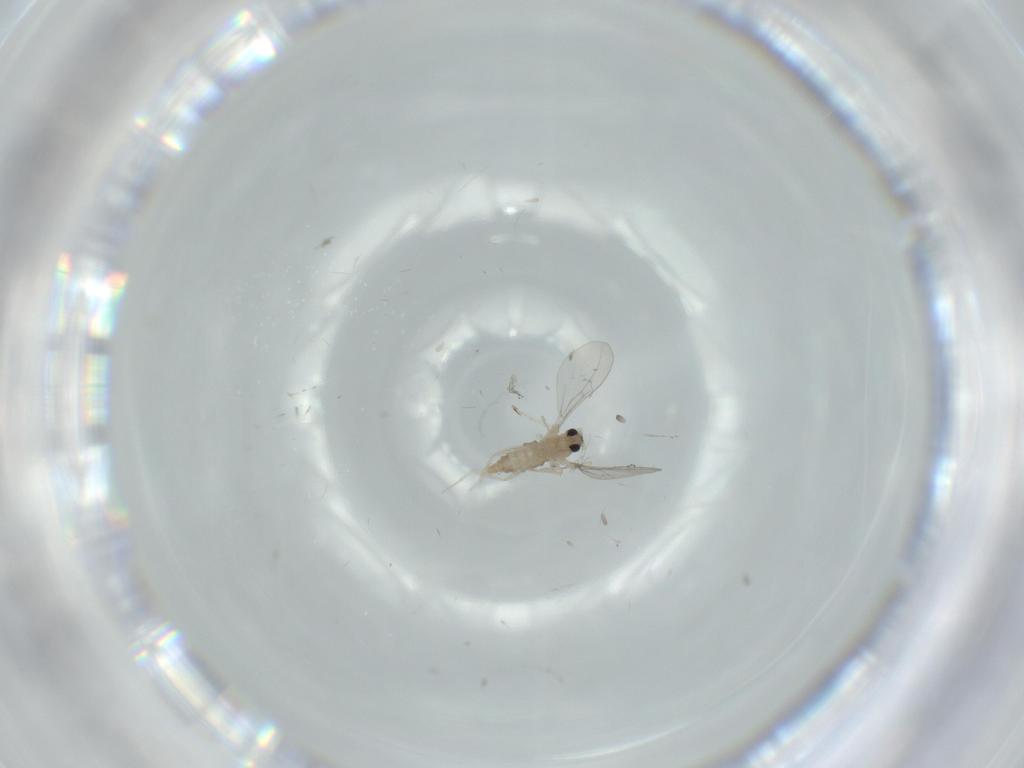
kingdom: Animalia
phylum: Arthropoda
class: Insecta
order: Diptera
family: Cecidomyiidae
